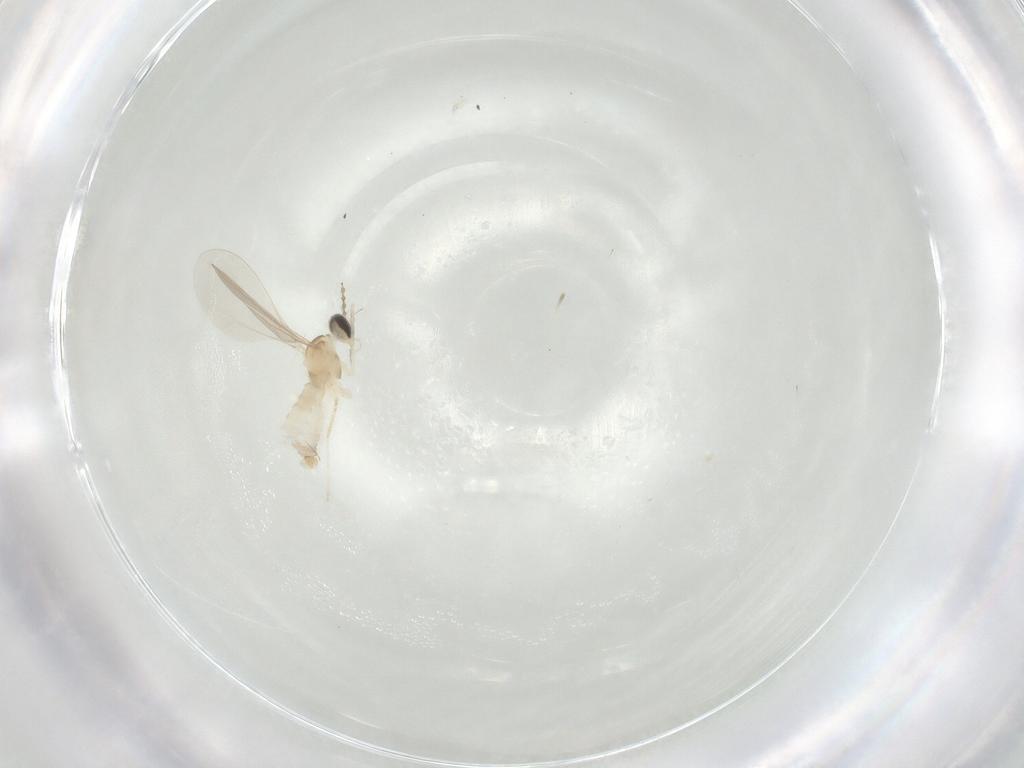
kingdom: Animalia
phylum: Arthropoda
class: Insecta
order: Diptera
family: Cecidomyiidae
